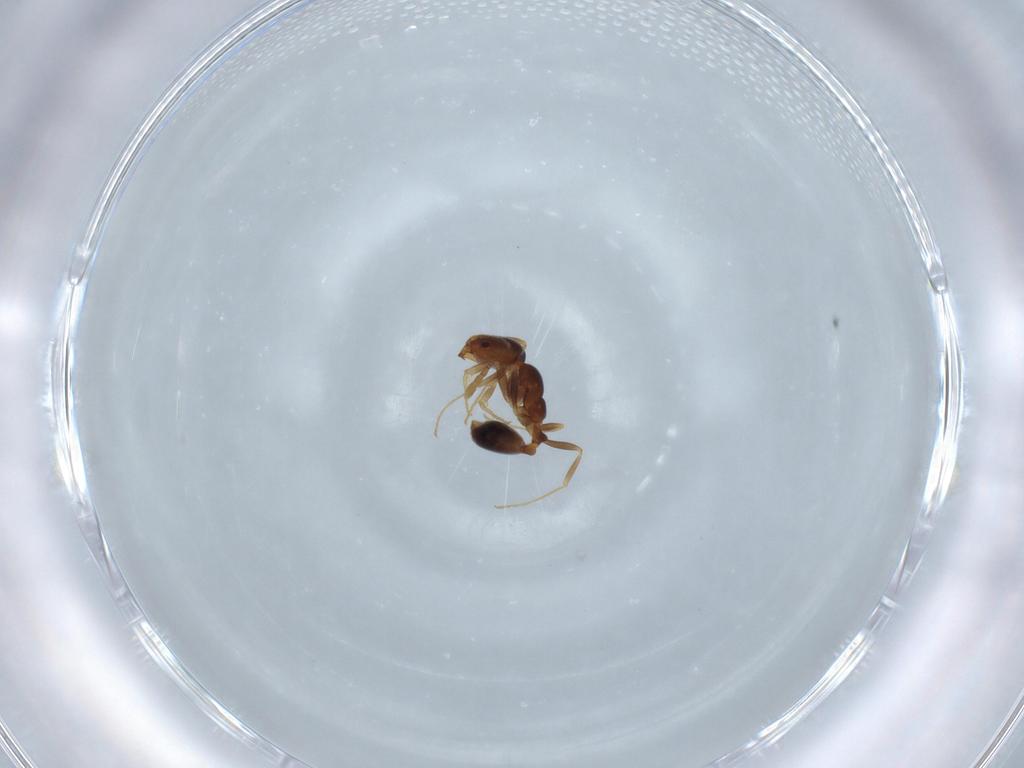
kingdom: Animalia
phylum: Arthropoda
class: Insecta
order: Hymenoptera
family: Formicidae
